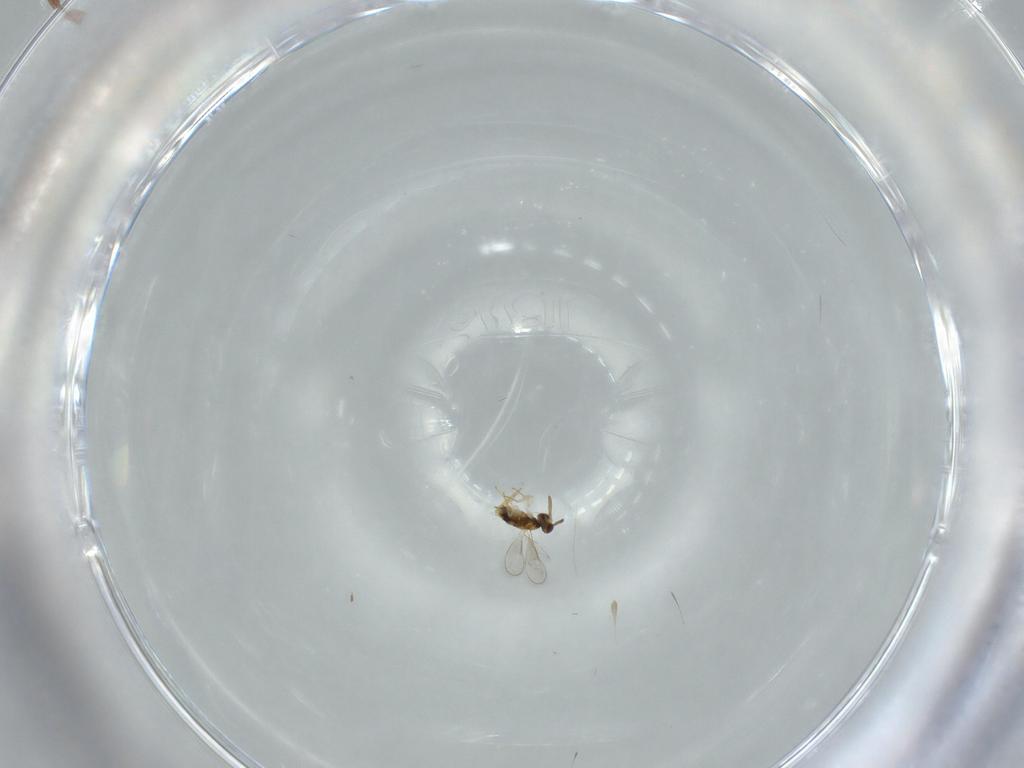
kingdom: Animalia
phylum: Arthropoda
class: Insecta
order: Hymenoptera
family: Aphelinidae
